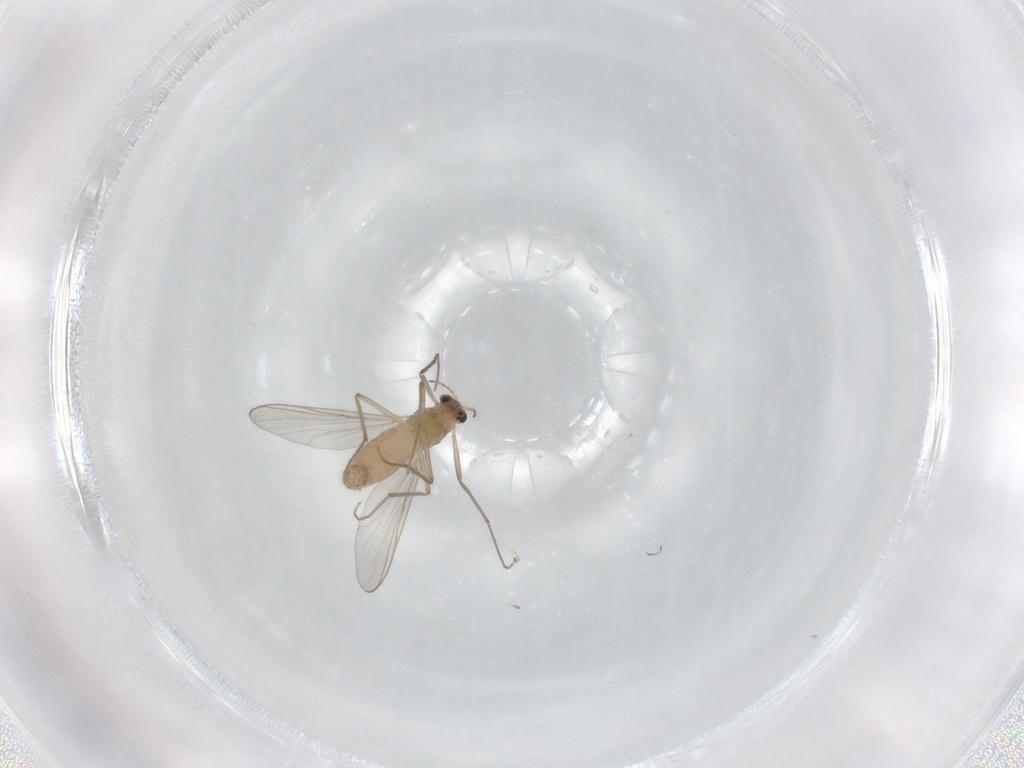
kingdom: Animalia
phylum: Arthropoda
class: Insecta
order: Diptera
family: Chironomidae
